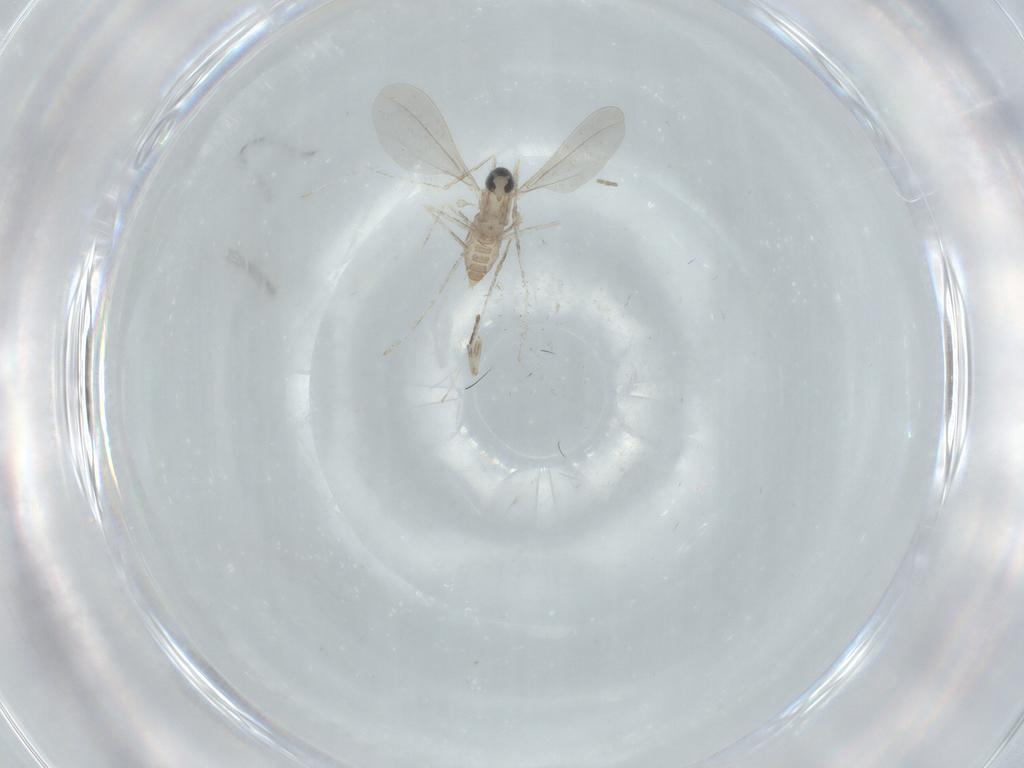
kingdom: Animalia
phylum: Arthropoda
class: Insecta
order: Diptera
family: Cecidomyiidae
